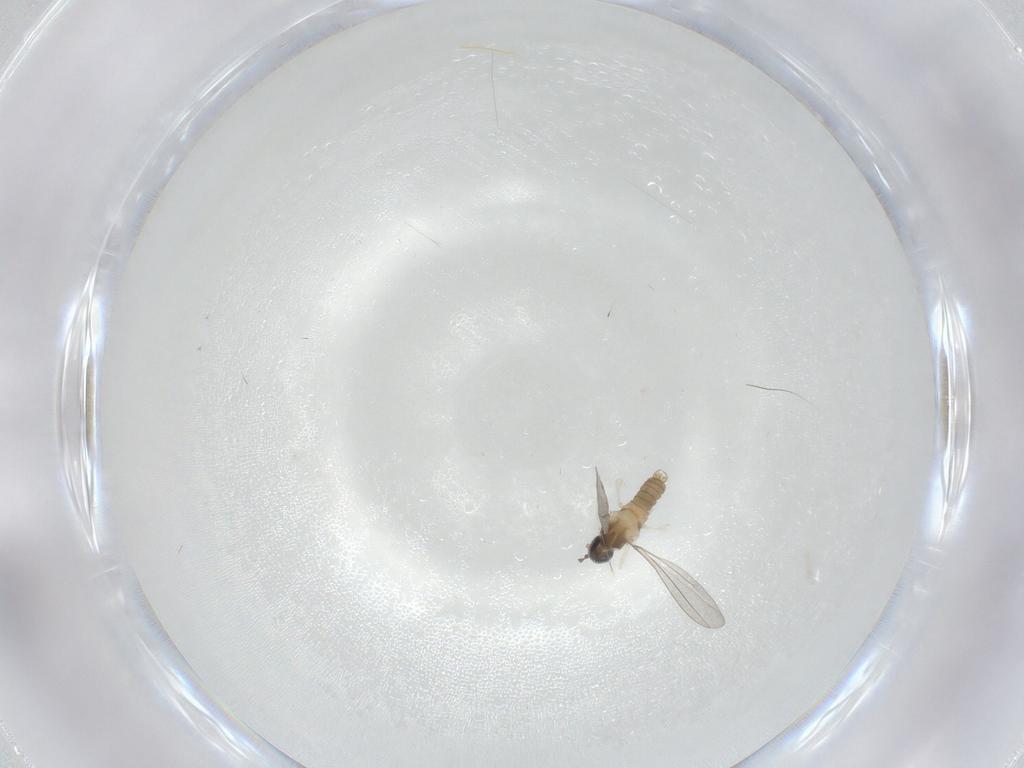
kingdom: Animalia
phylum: Arthropoda
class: Insecta
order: Diptera
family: Cecidomyiidae
